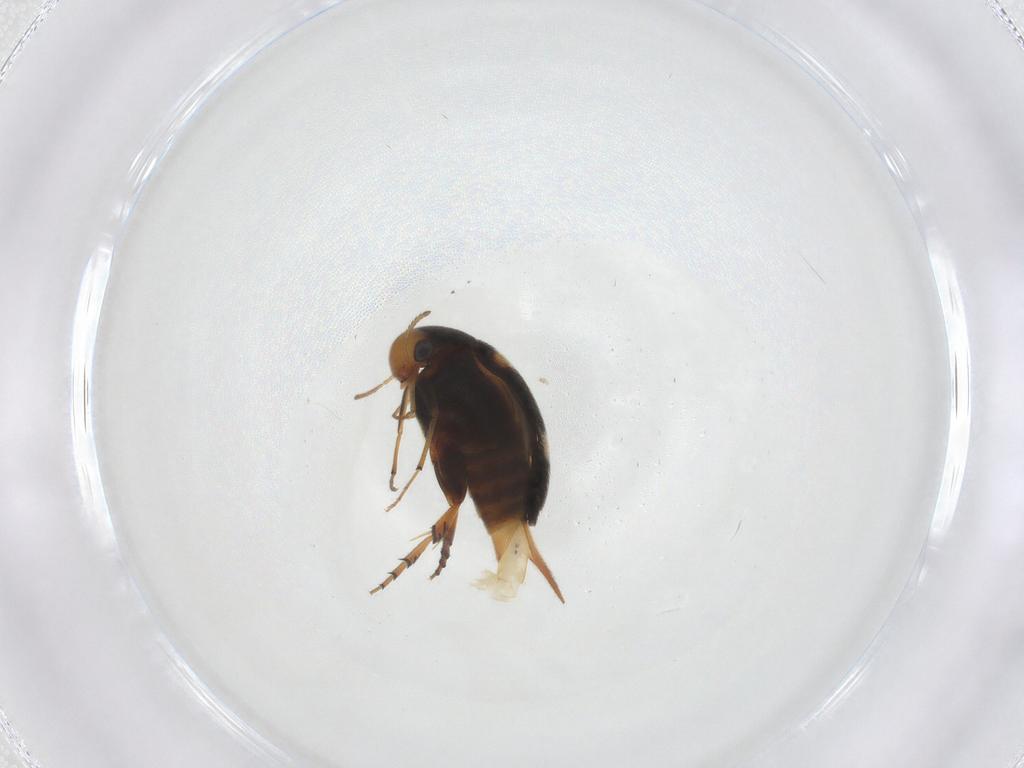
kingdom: Animalia
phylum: Arthropoda
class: Insecta
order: Coleoptera
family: Mordellidae
